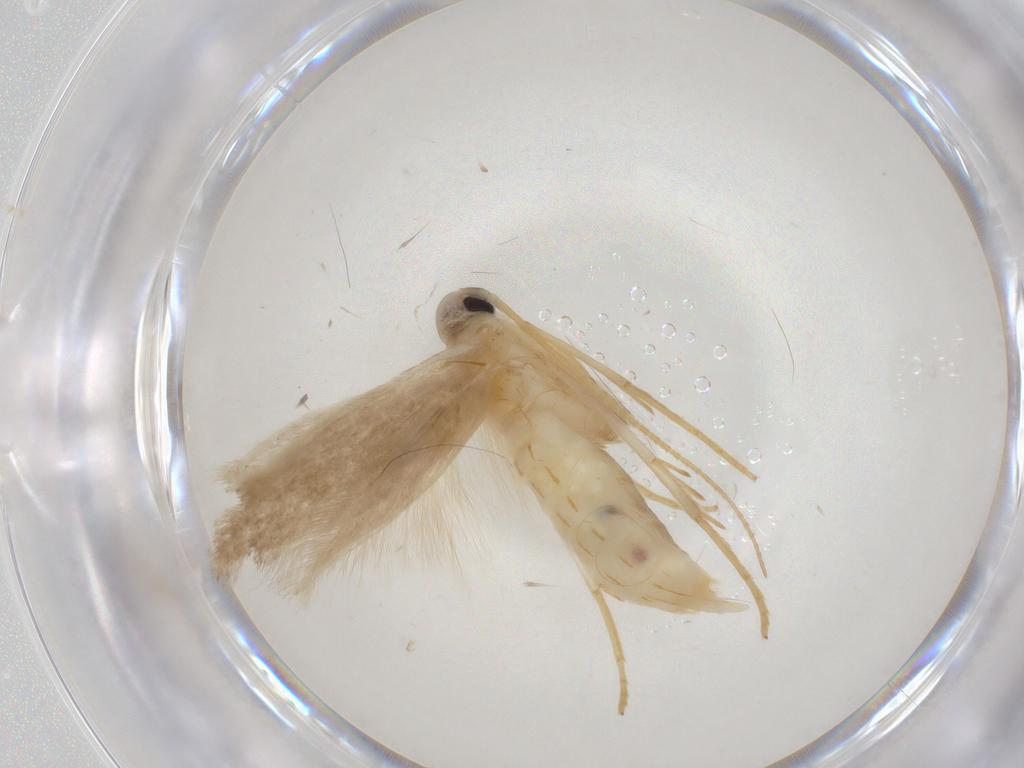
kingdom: Animalia
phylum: Arthropoda
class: Insecta
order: Lepidoptera
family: Coleophoridae
